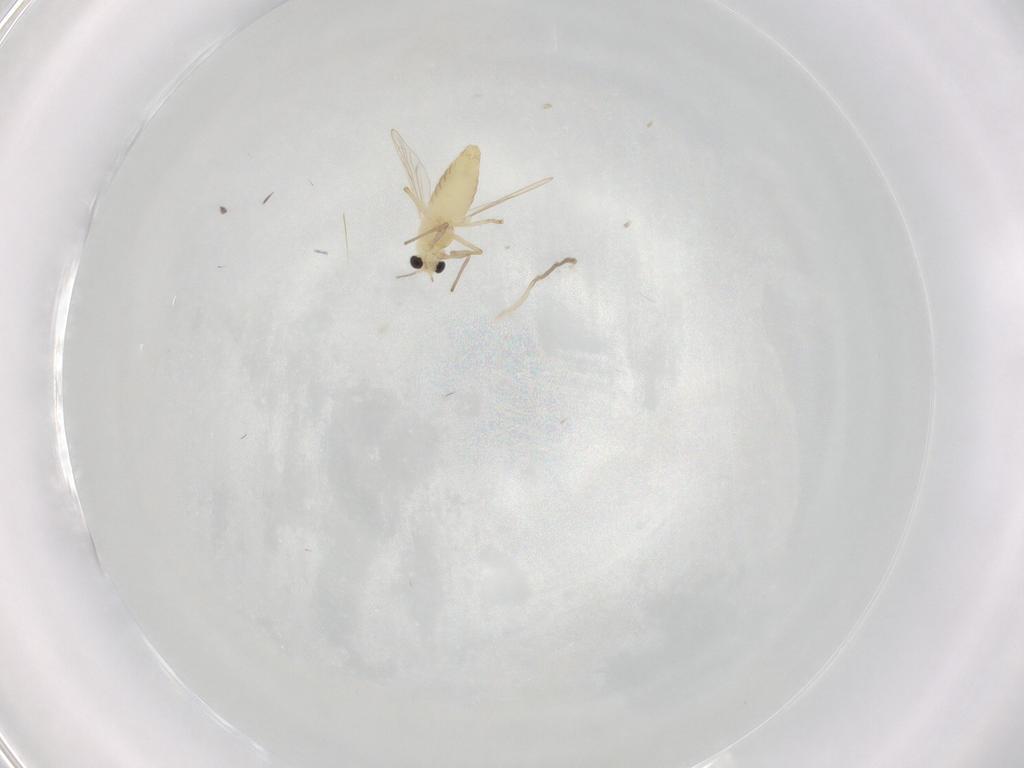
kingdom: Animalia
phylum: Arthropoda
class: Insecta
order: Diptera
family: Chironomidae
